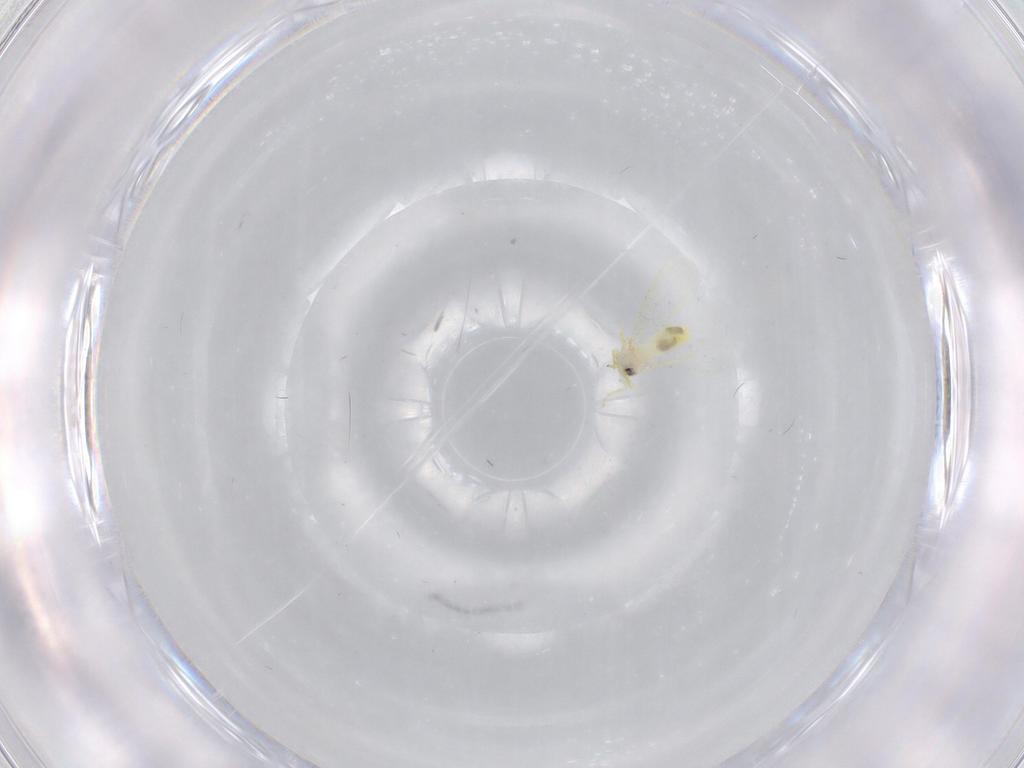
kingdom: Animalia
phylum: Arthropoda
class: Insecta
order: Hemiptera
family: Aleyrodidae
